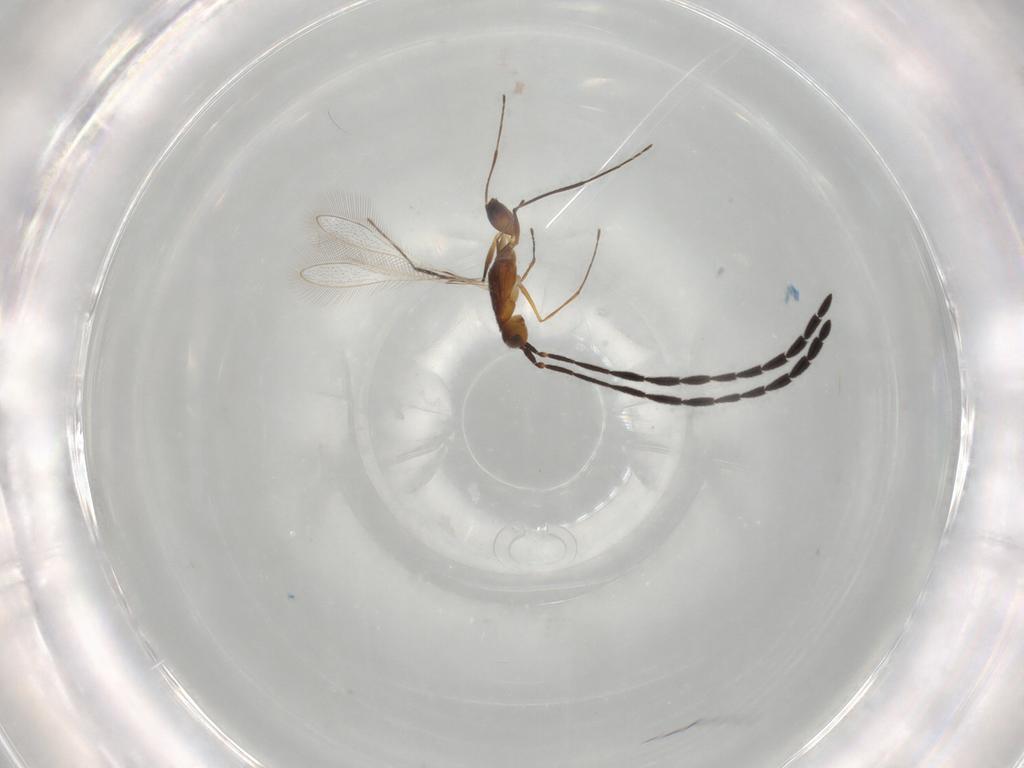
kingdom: Animalia
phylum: Arthropoda
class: Insecta
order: Hymenoptera
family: Mymaridae
